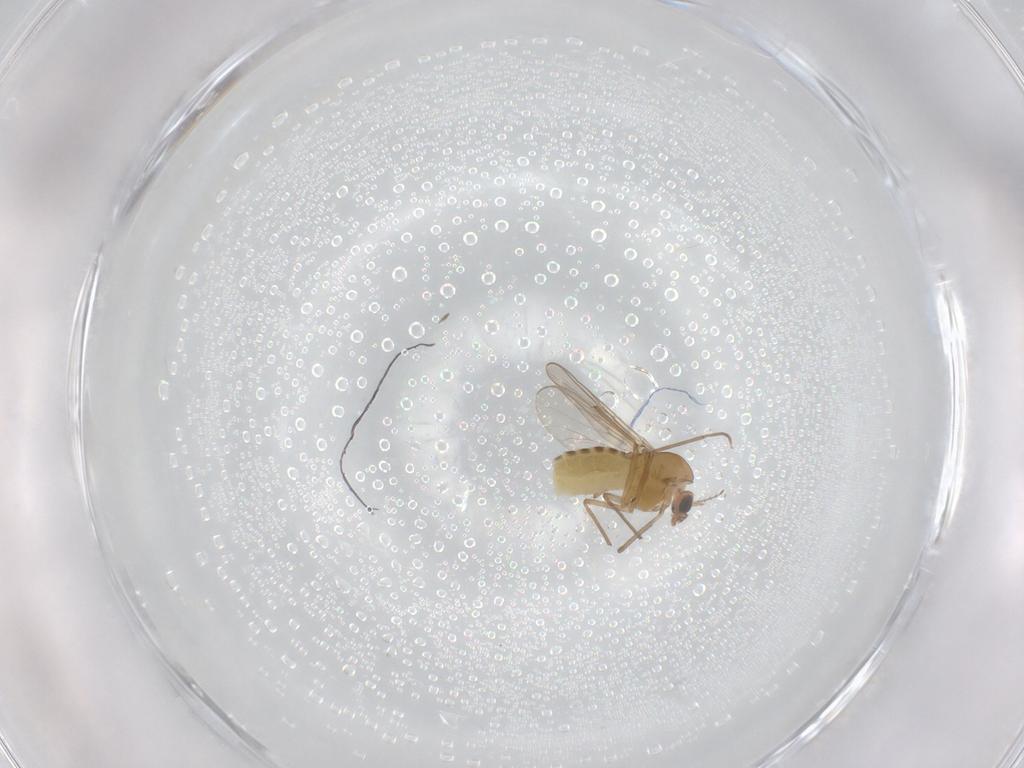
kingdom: Animalia
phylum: Arthropoda
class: Insecta
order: Diptera
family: Chironomidae
